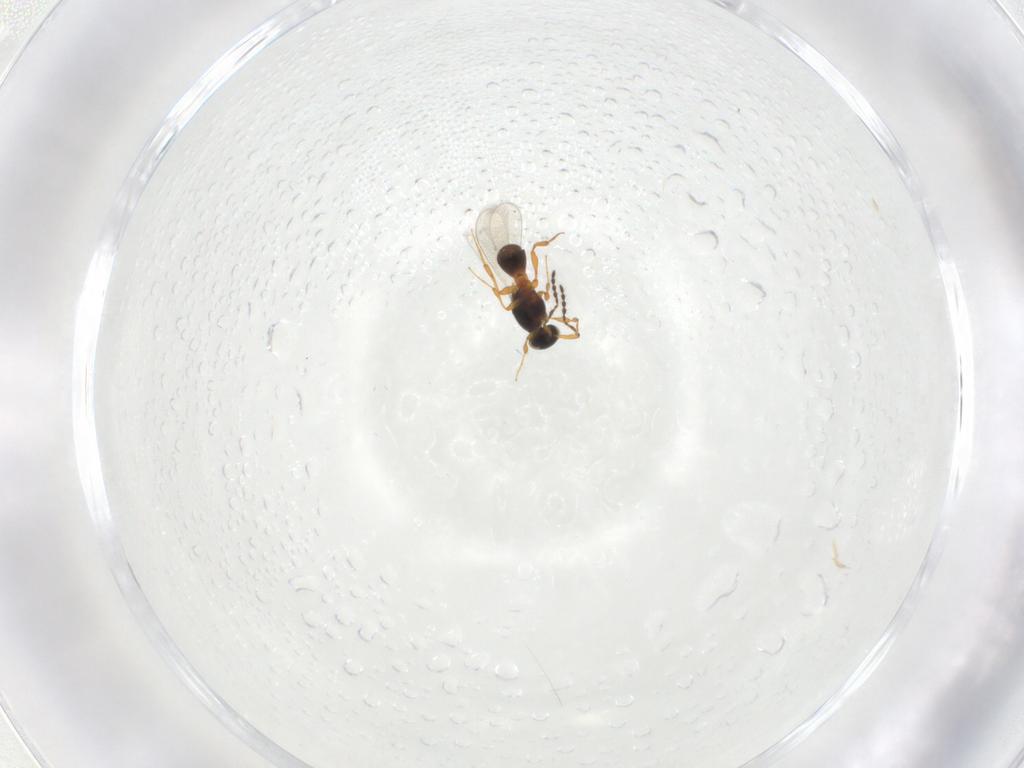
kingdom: Animalia
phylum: Arthropoda
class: Insecta
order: Hymenoptera
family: Platygastridae
